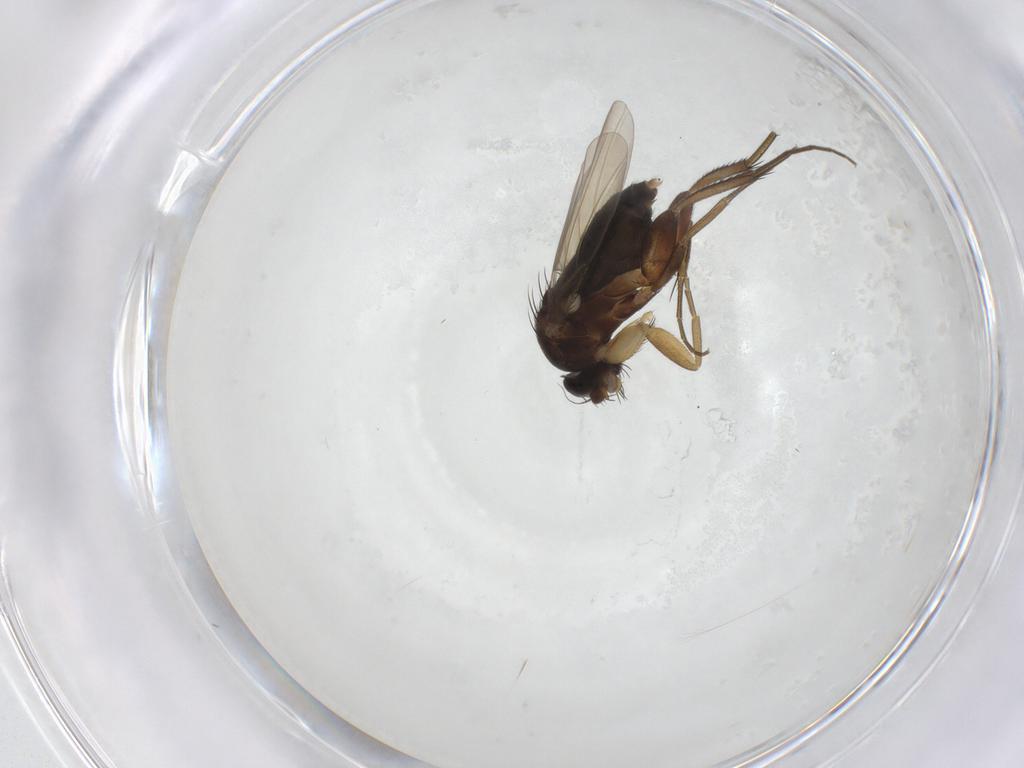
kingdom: Animalia
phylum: Arthropoda
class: Insecta
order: Diptera
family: Phoridae
